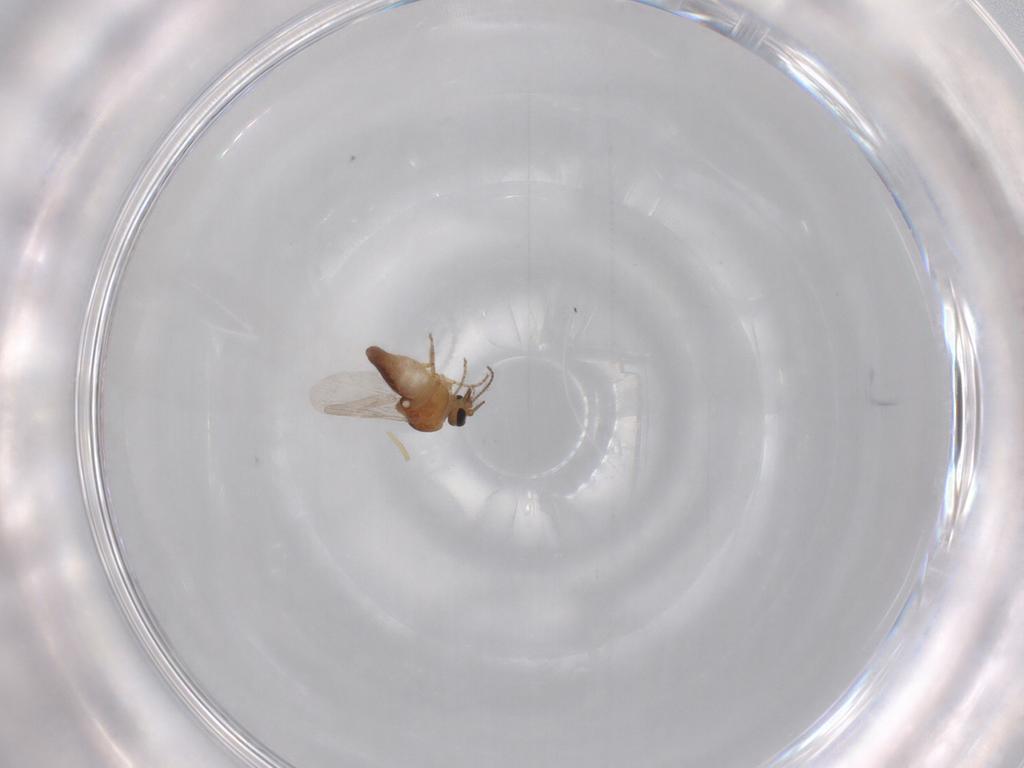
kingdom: Animalia
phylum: Arthropoda
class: Insecta
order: Diptera
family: Ceratopogonidae
